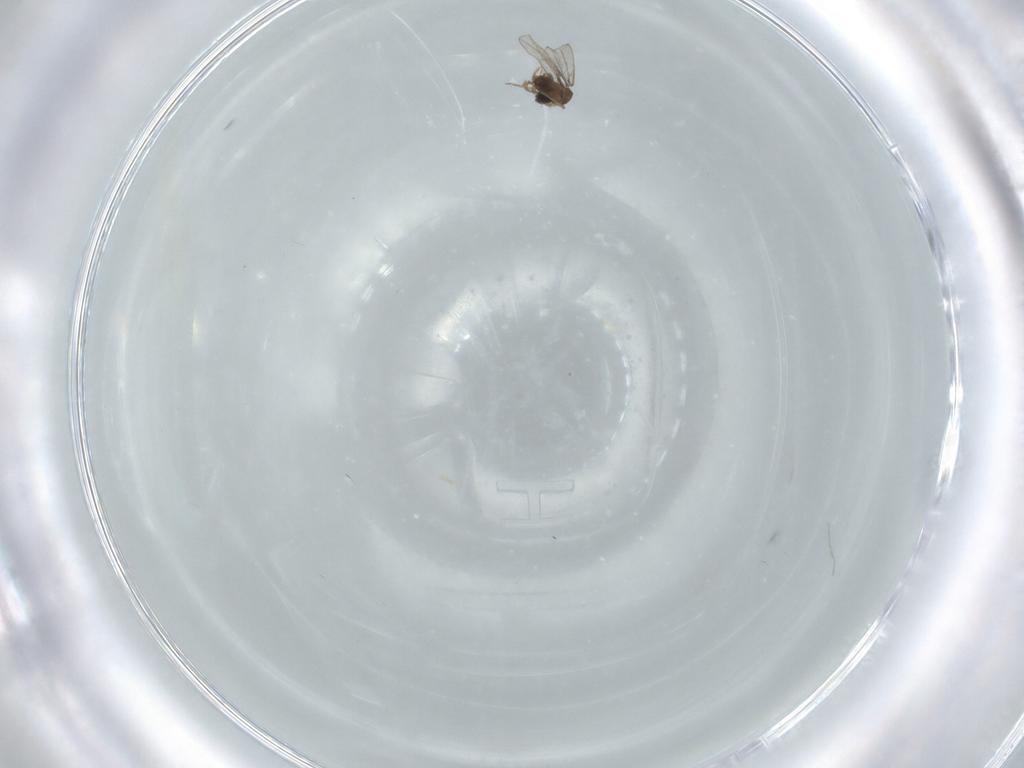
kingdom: Animalia
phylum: Arthropoda
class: Insecta
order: Diptera
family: Cecidomyiidae
